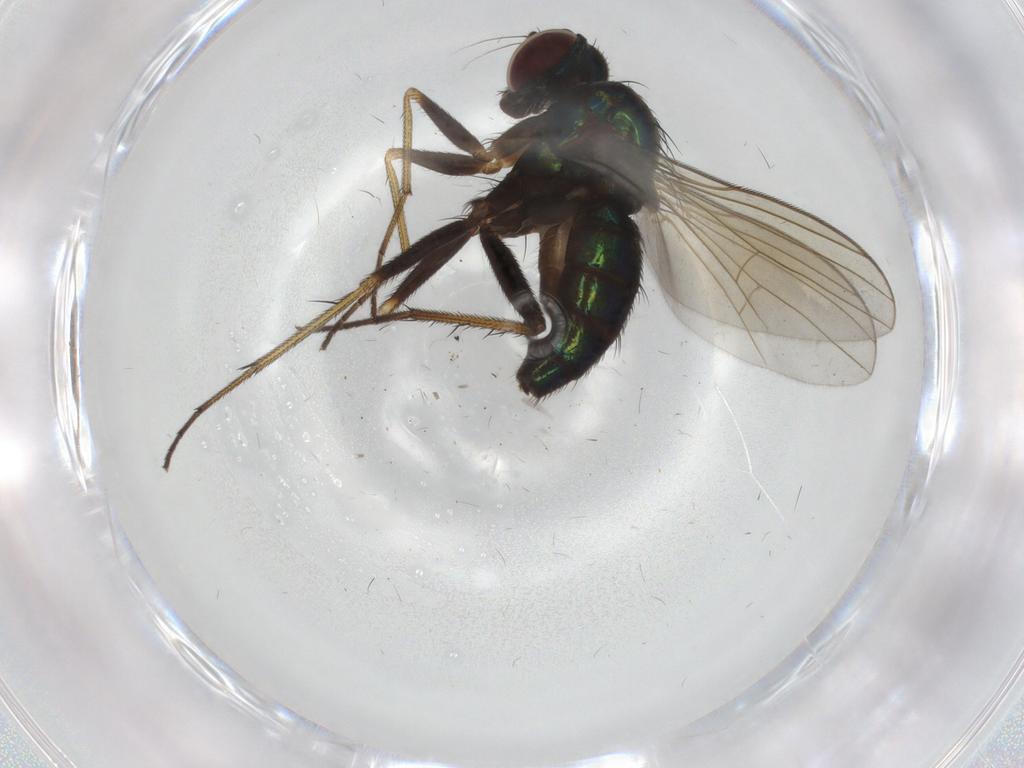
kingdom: Animalia
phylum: Arthropoda
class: Insecta
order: Diptera
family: Dolichopodidae
